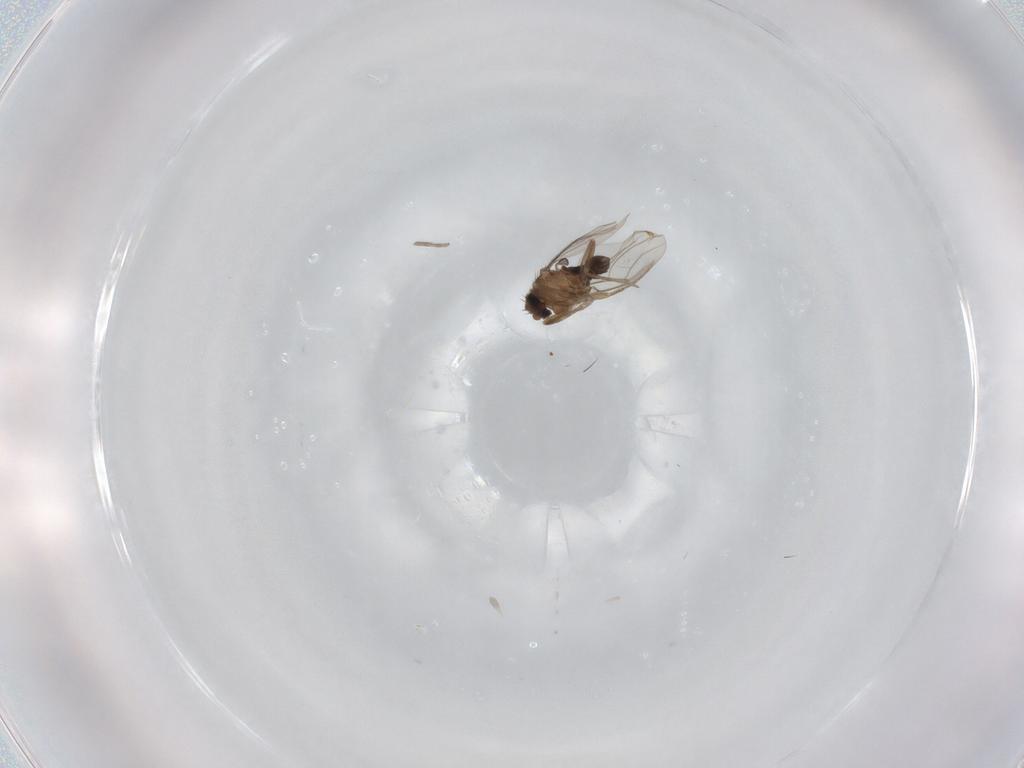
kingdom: Animalia
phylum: Arthropoda
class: Insecta
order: Diptera
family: Phoridae
